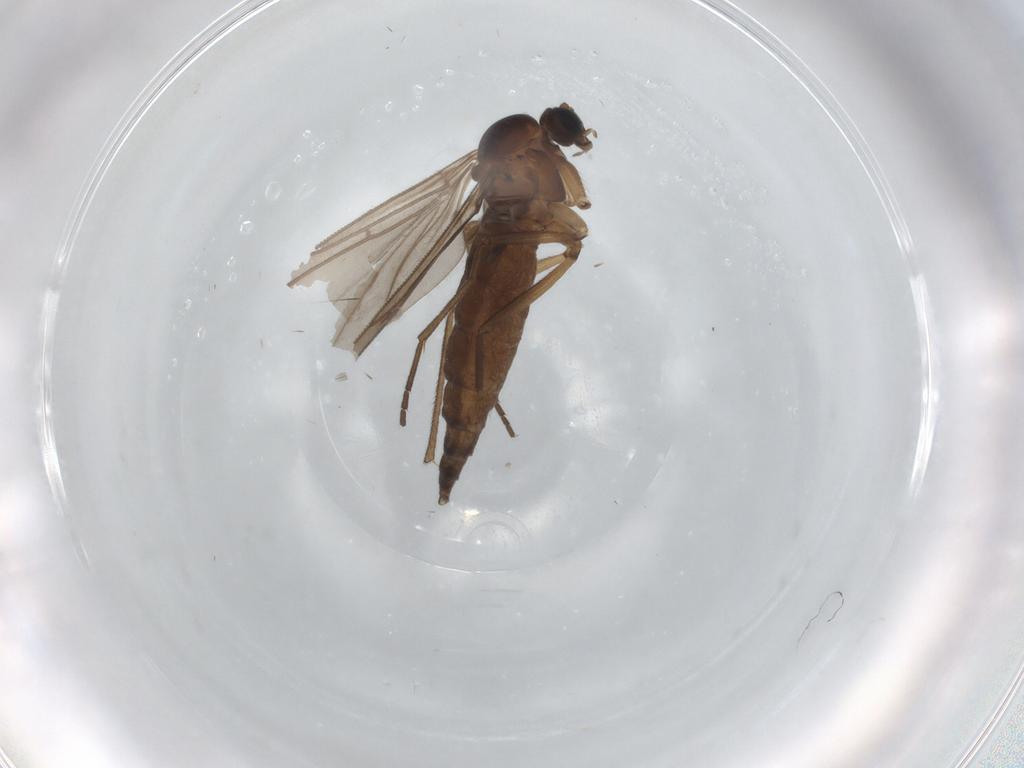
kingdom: Animalia
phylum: Arthropoda
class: Insecta
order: Diptera
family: Sciaridae
